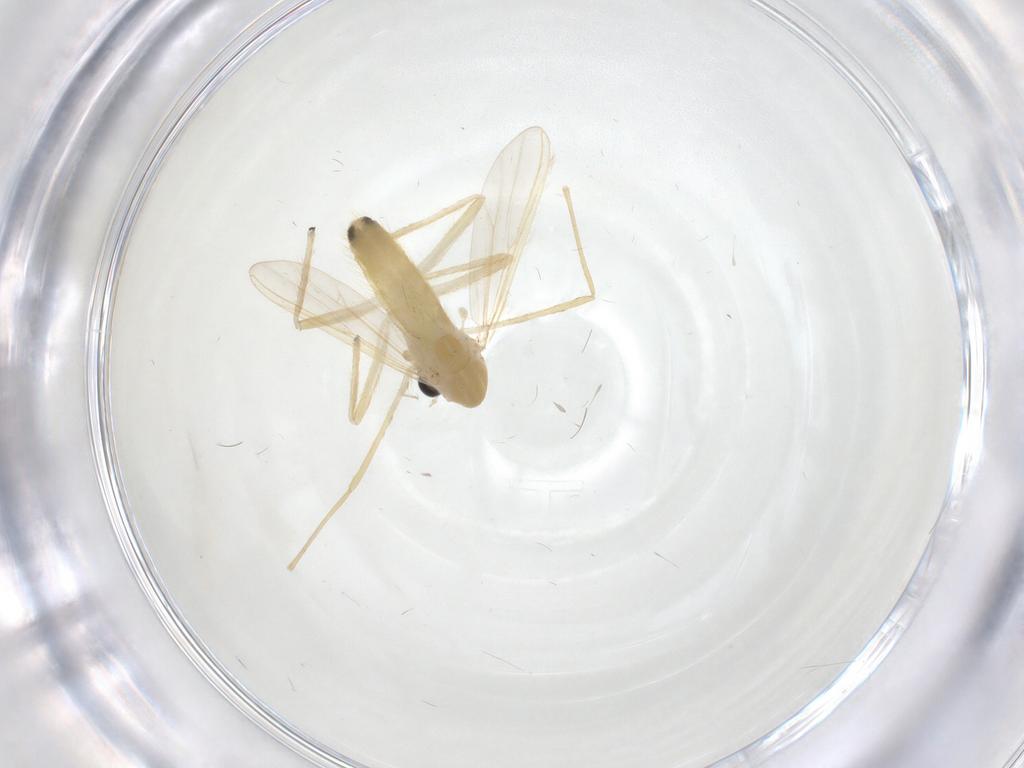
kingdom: Animalia
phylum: Arthropoda
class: Insecta
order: Diptera
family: Chironomidae
